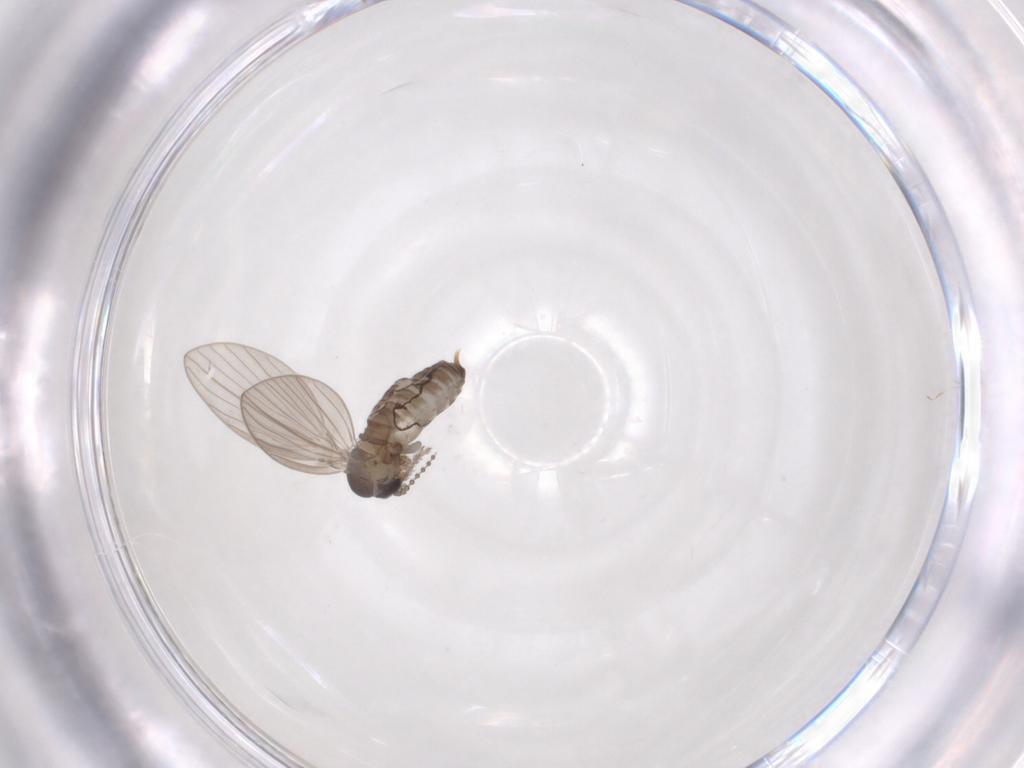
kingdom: Animalia
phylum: Arthropoda
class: Insecta
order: Diptera
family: Psychodidae
